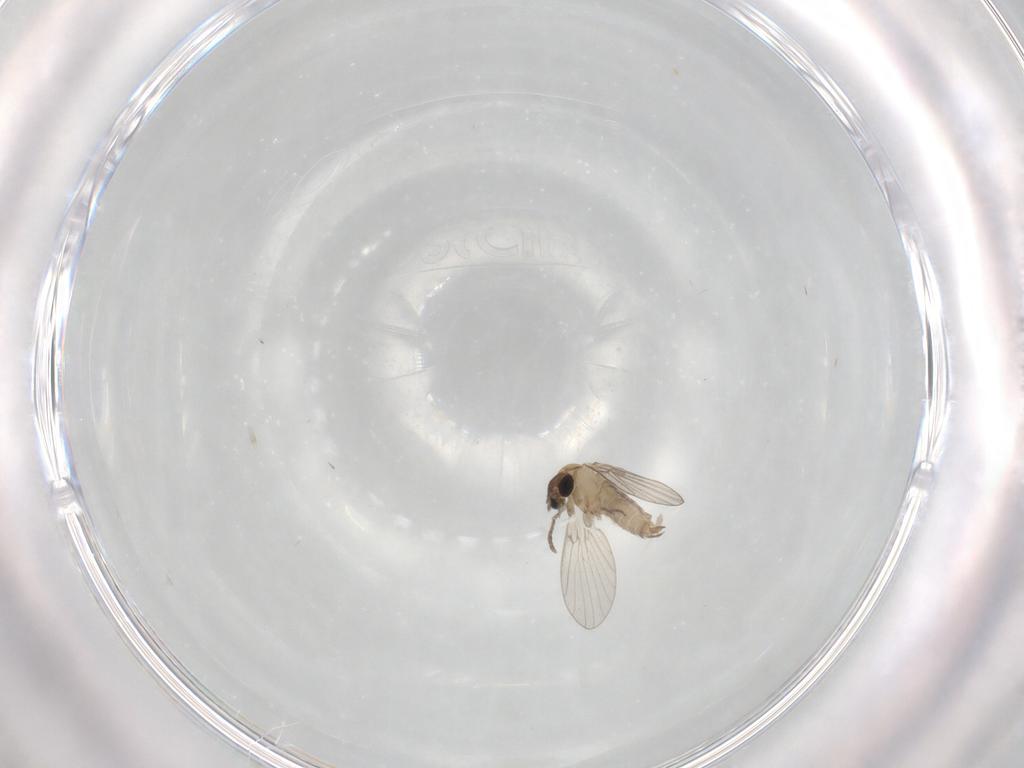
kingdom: Animalia
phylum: Arthropoda
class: Insecta
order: Diptera
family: Psychodidae
